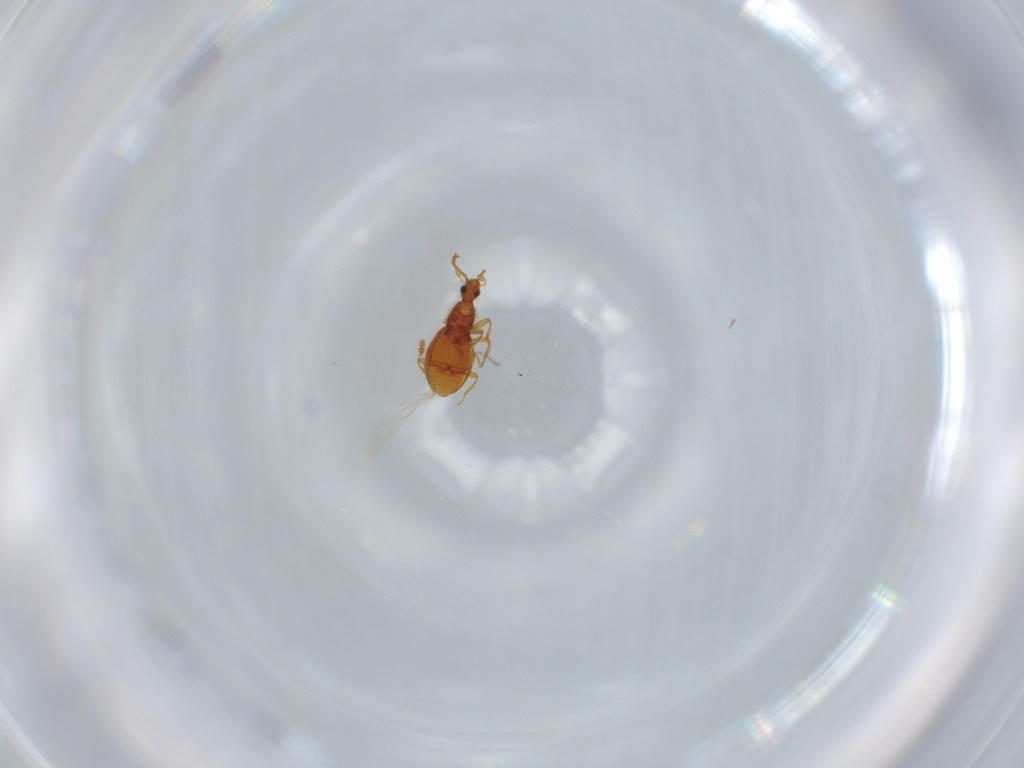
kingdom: Animalia
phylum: Arthropoda
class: Insecta
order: Coleoptera
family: Staphylinidae
